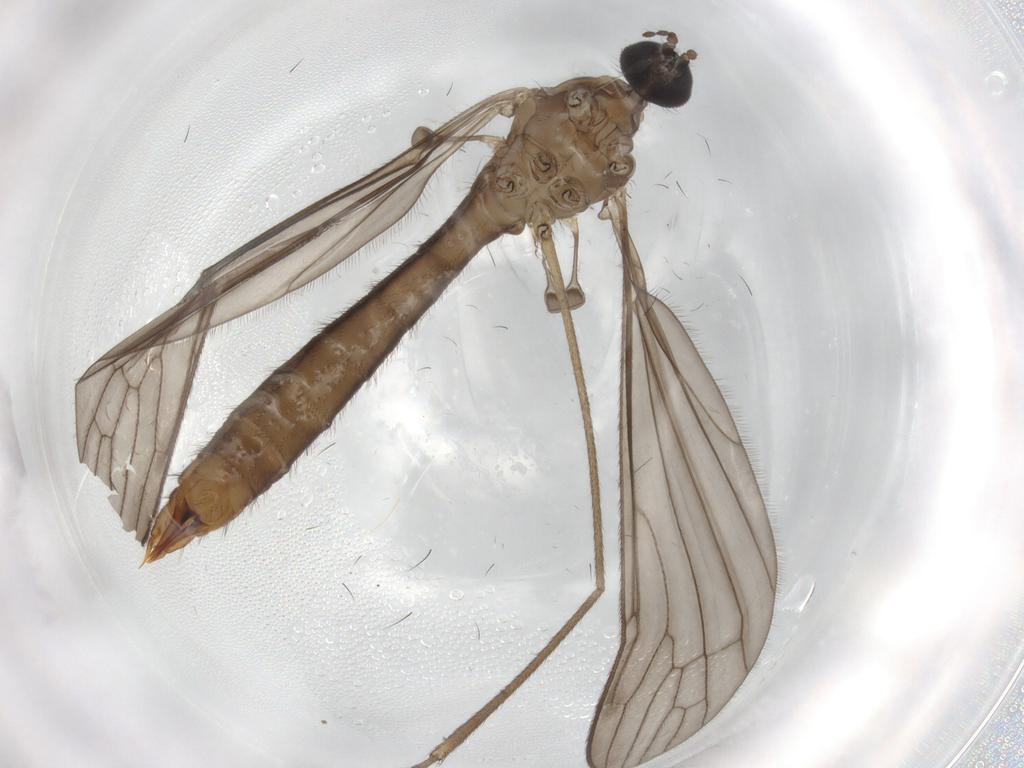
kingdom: Animalia
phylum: Arthropoda
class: Insecta
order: Diptera
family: Limoniidae
